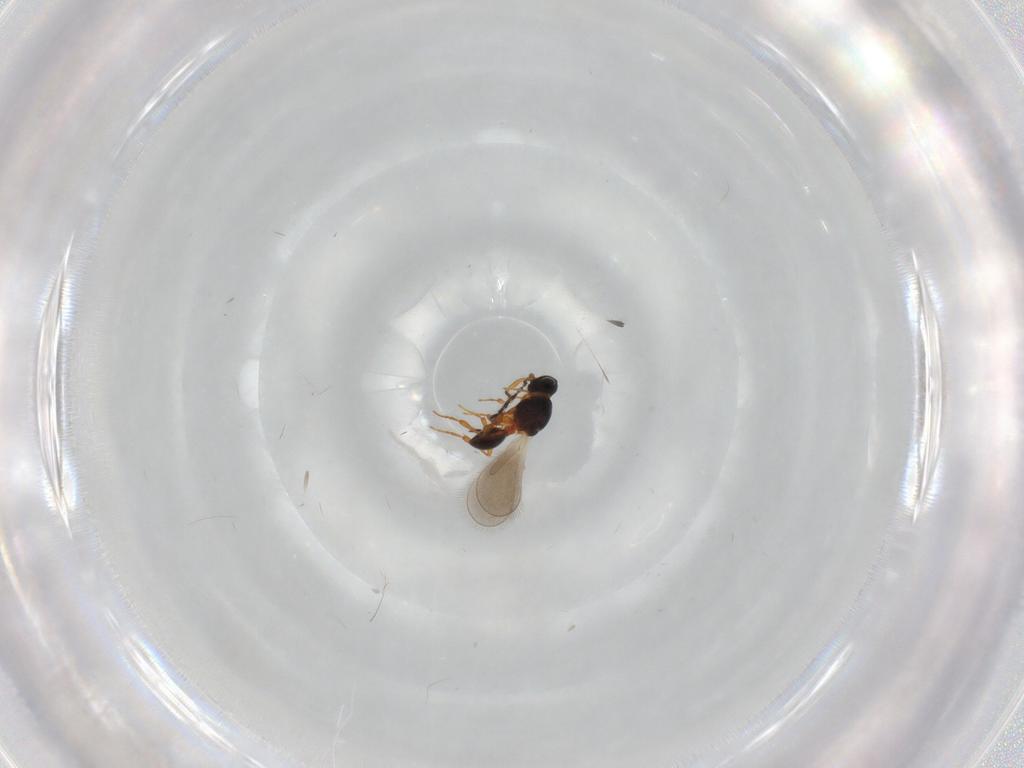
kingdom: Animalia
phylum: Arthropoda
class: Insecta
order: Hymenoptera
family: Platygastridae
